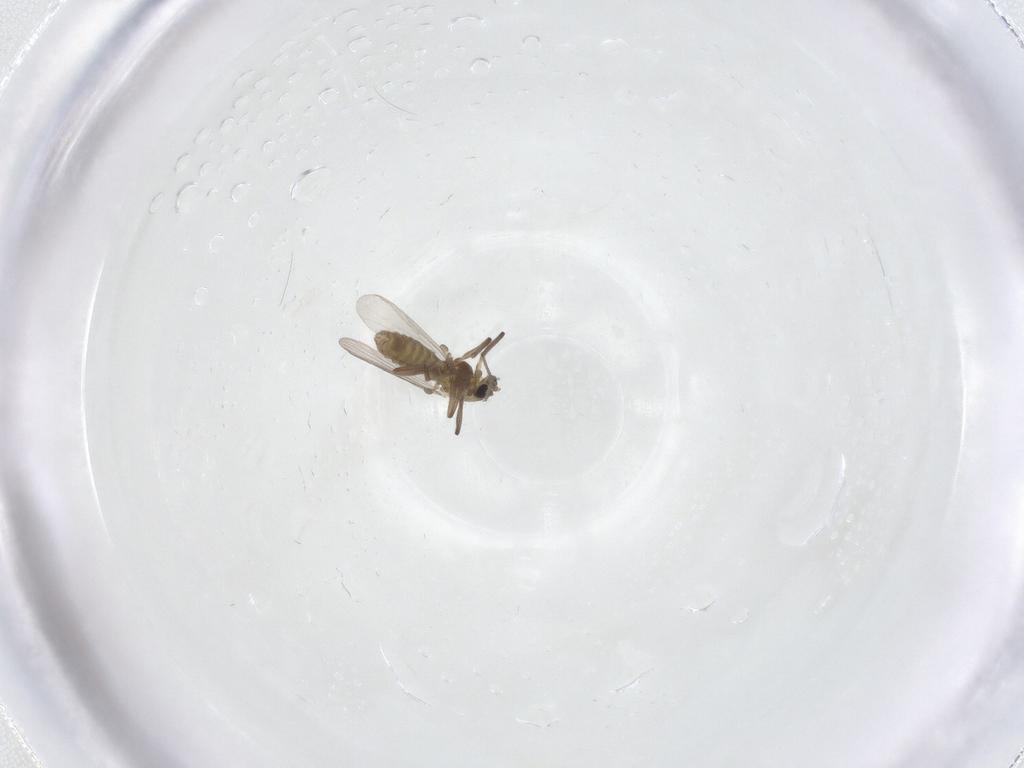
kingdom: Animalia
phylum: Arthropoda
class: Insecta
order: Diptera
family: Chironomidae
